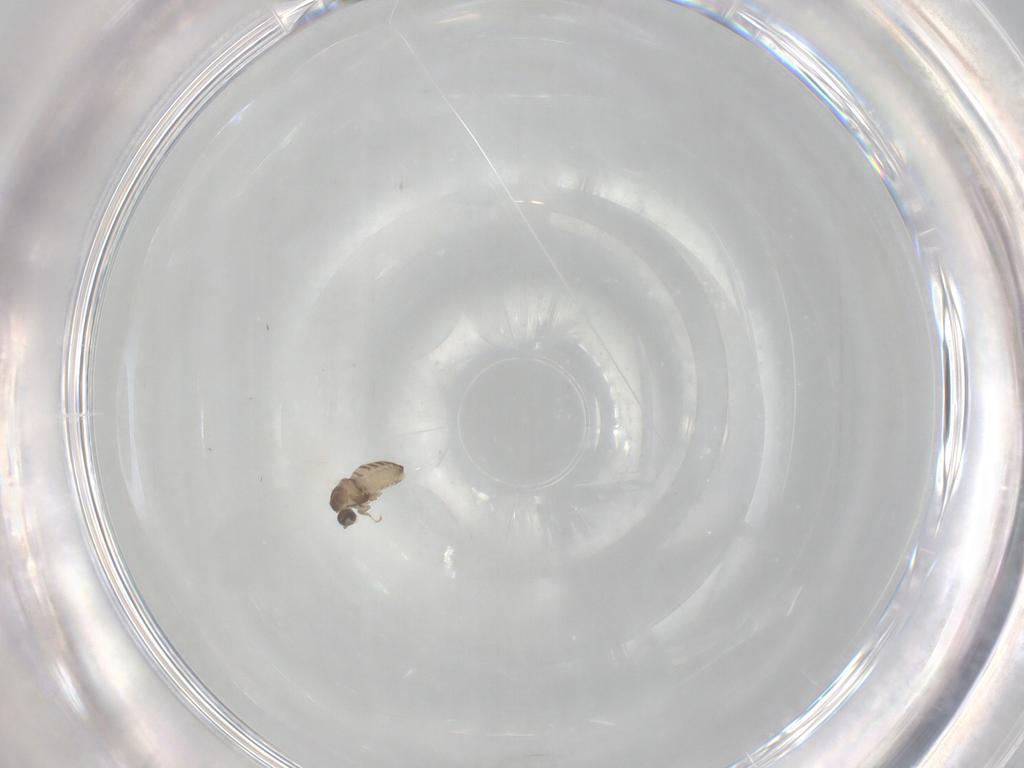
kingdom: Animalia
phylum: Arthropoda
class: Insecta
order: Diptera
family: Cecidomyiidae
